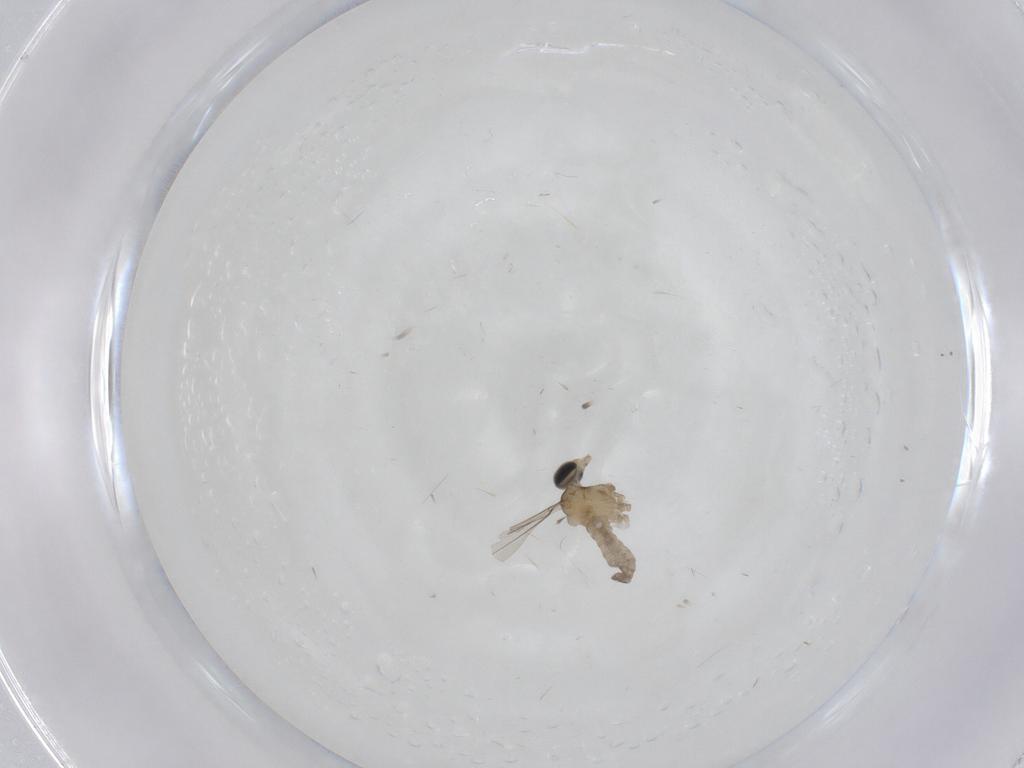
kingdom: Animalia
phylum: Arthropoda
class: Insecta
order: Diptera
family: Cecidomyiidae
